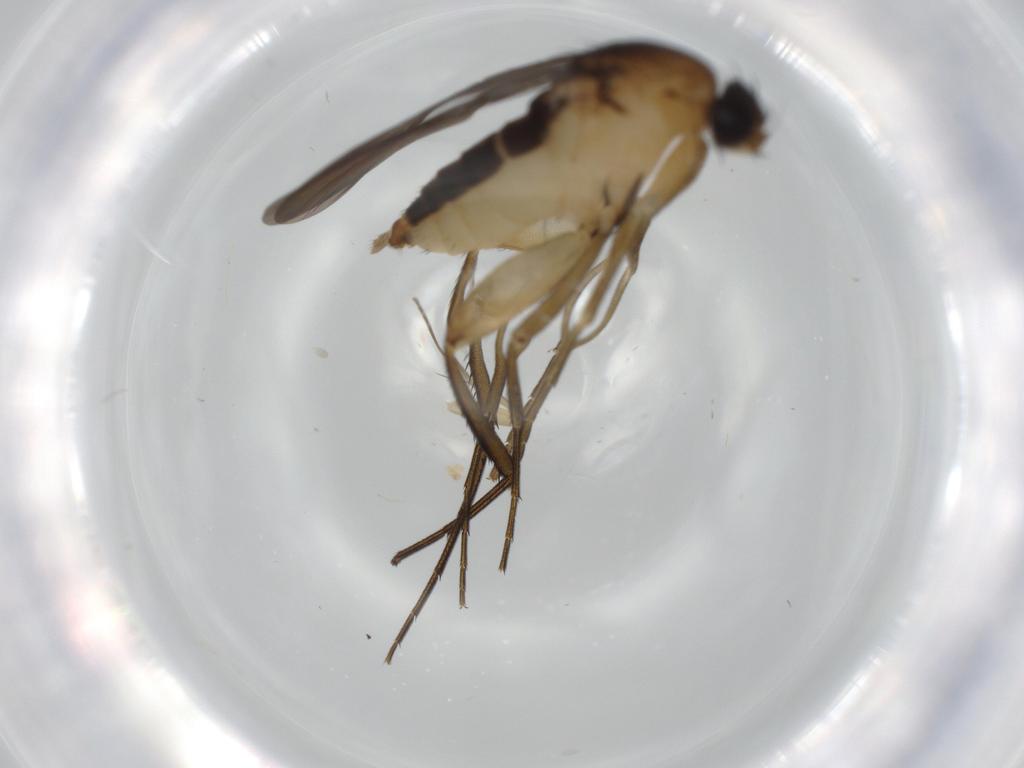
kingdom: Animalia
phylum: Arthropoda
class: Insecta
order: Diptera
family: Phoridae
